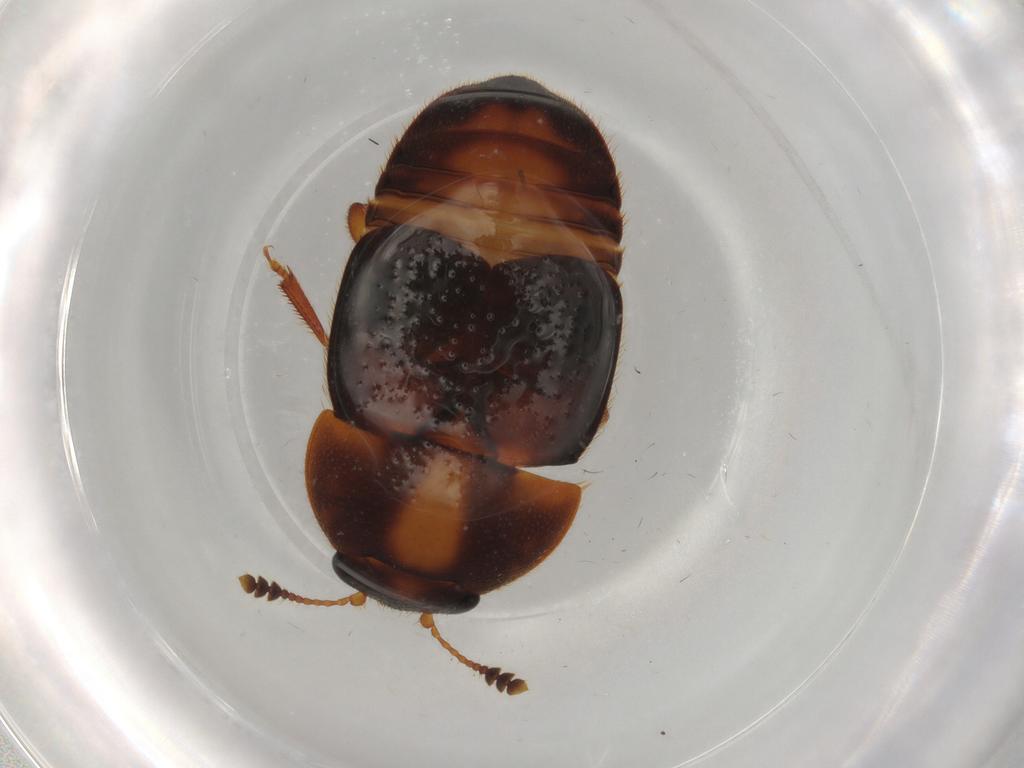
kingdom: Animalia
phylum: Arthropoda
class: Insecta
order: Coleoptera
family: Nitidulidae
